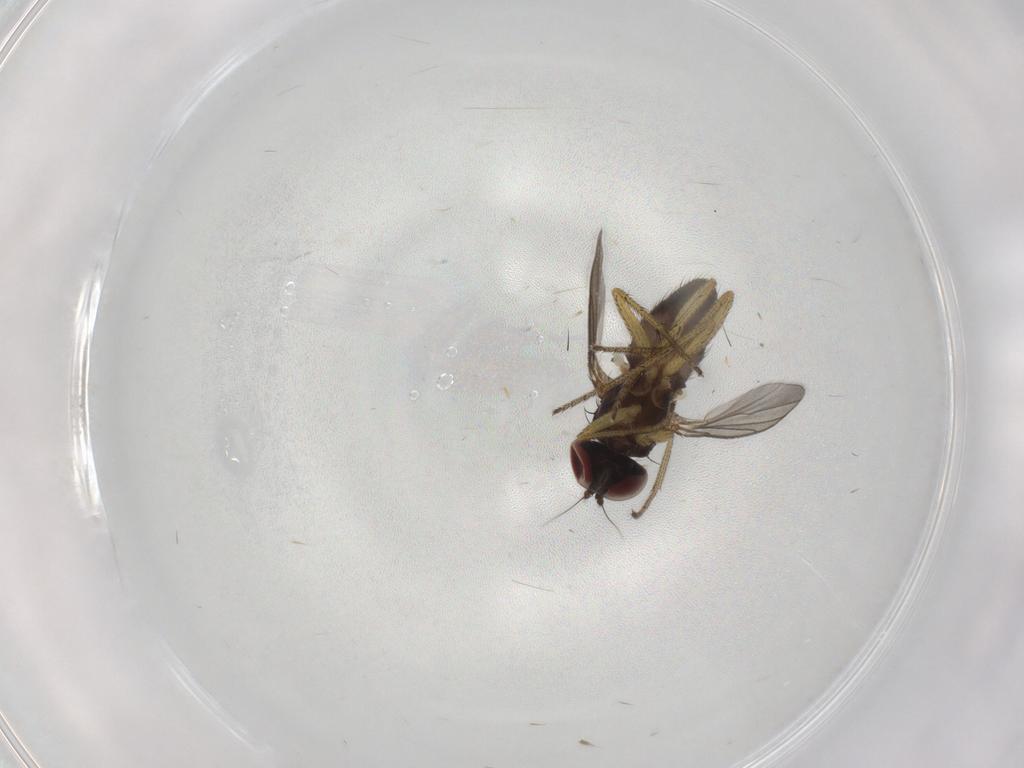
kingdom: Animalia
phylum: Arthropoda
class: Insecta
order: Diptera
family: Chironomidae
